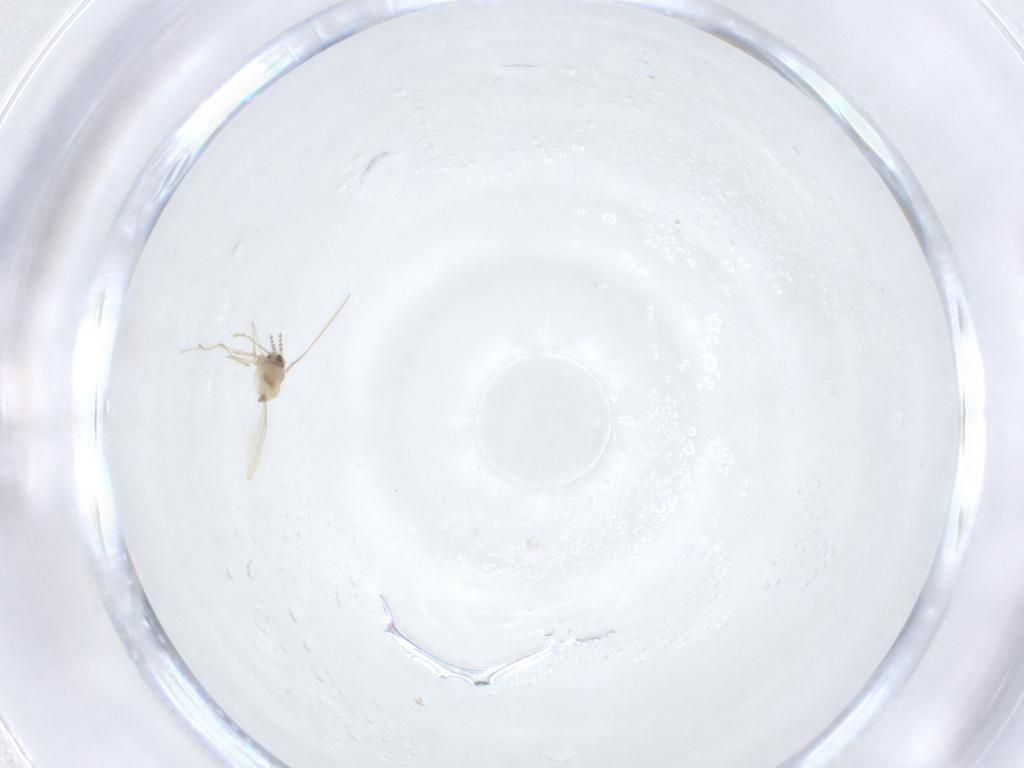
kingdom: Animalia
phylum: Arthropoda
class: Insecta
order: Diptera
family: Cecidomyiidae
